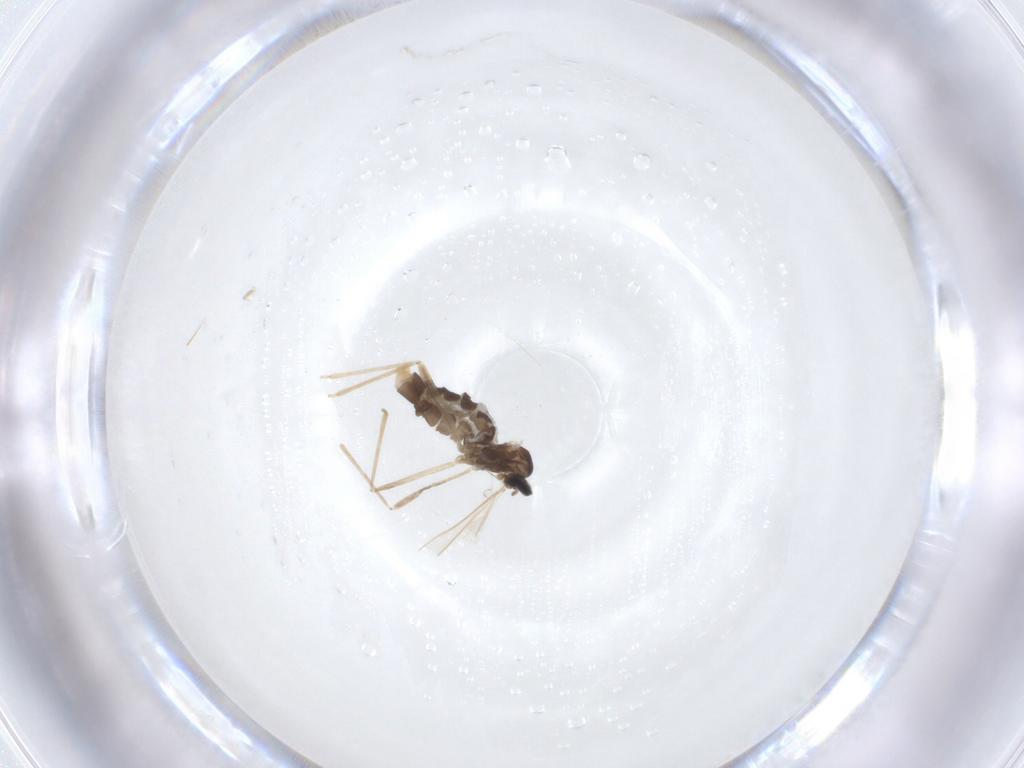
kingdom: Animalia
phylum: Arthropoda
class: Insecta
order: Diptera
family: Cecidomyiidae
